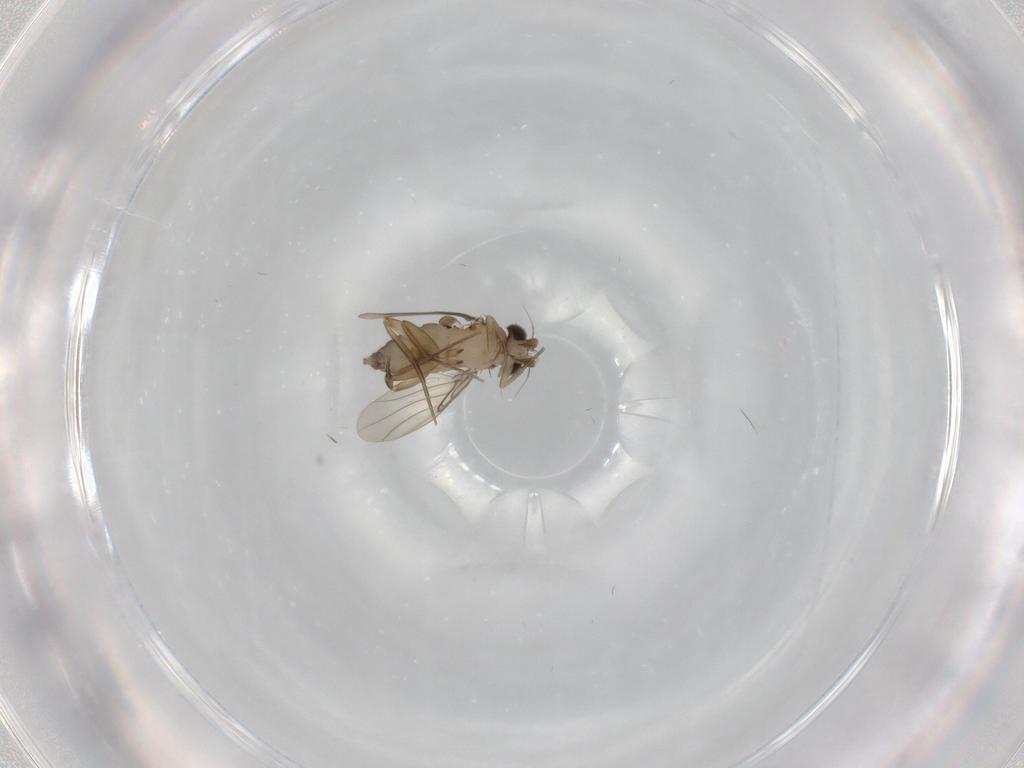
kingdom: Animalia
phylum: Arthropoda
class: Insecta
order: Diptera
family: Phoridae
